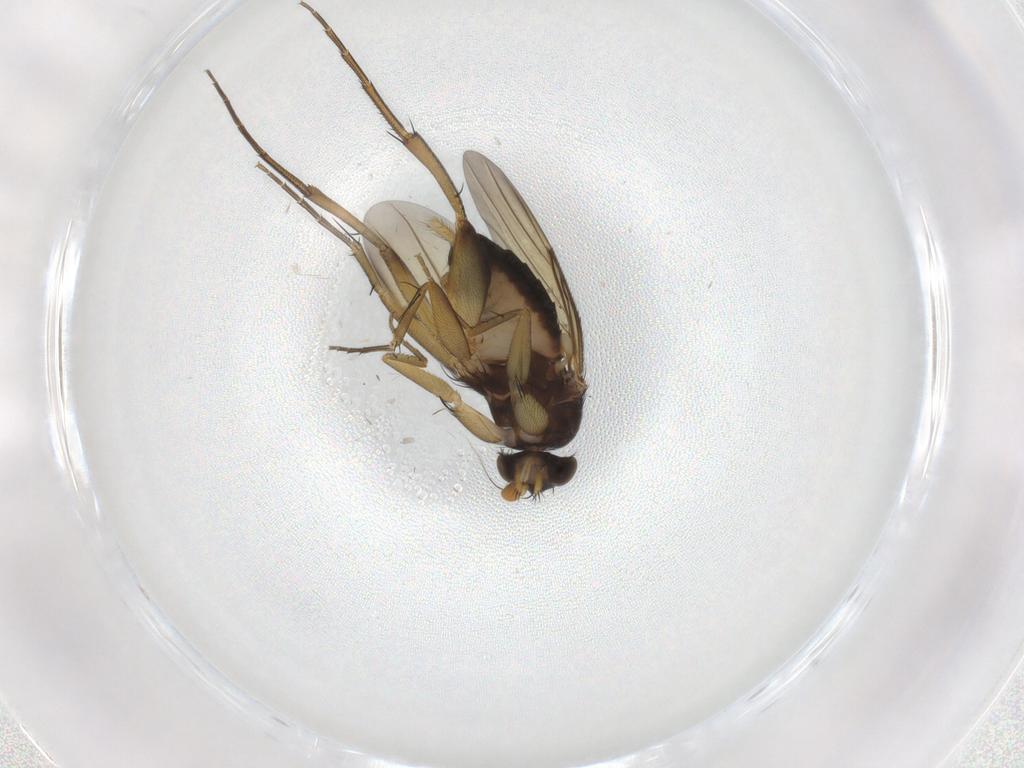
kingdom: Animalia
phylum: Arthropoda
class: Insecta
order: Diptera
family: Phoridae
